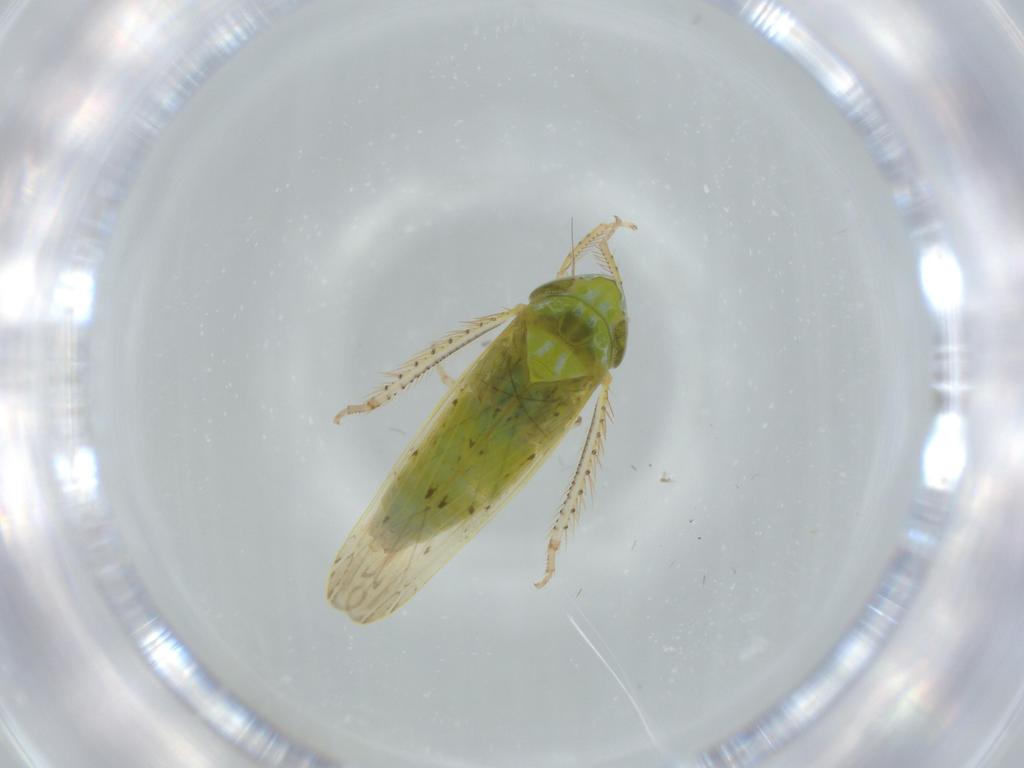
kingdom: Animalia
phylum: Arthropoda
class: Insecta
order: Hemiptera
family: Cicadellidae
